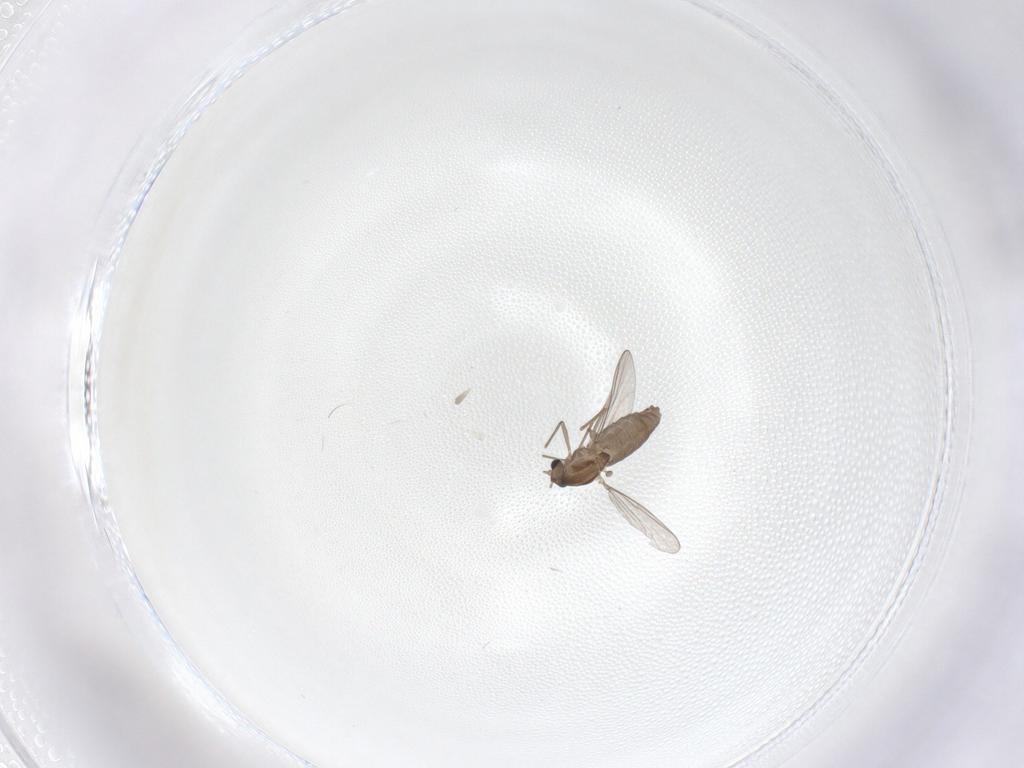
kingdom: Animalia
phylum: Arthropoda
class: Insecta
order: Diptera
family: Chironomidae
